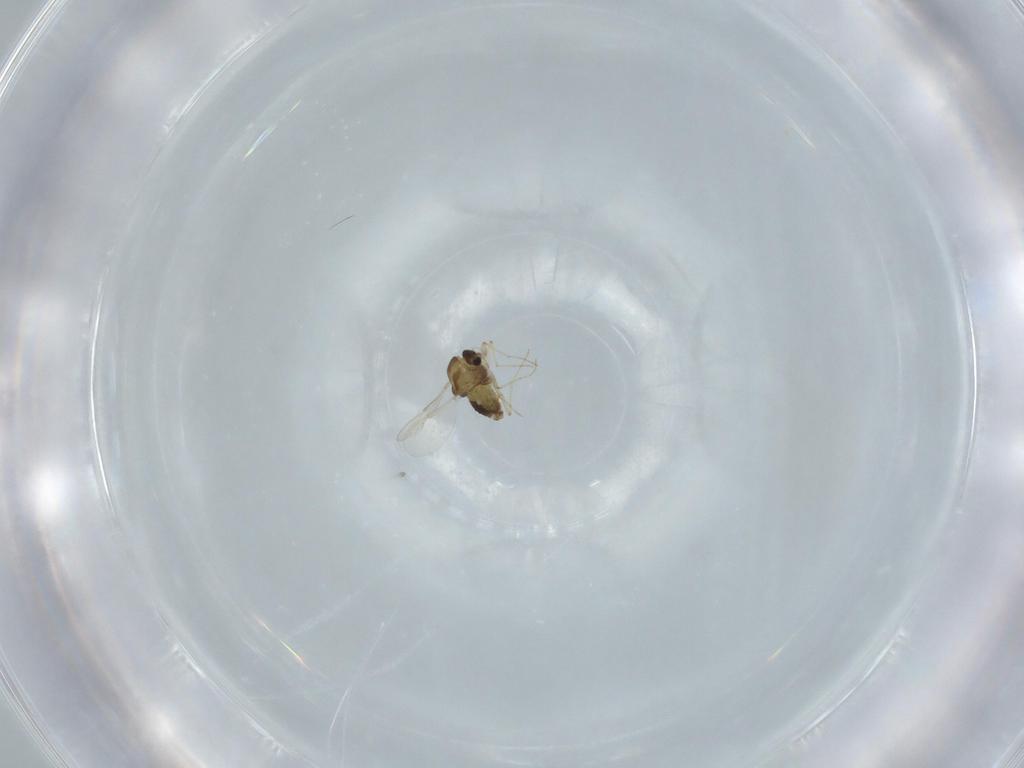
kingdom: Animalia
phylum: Arthropoda
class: Insecta
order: Diptera
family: Chironomidae
